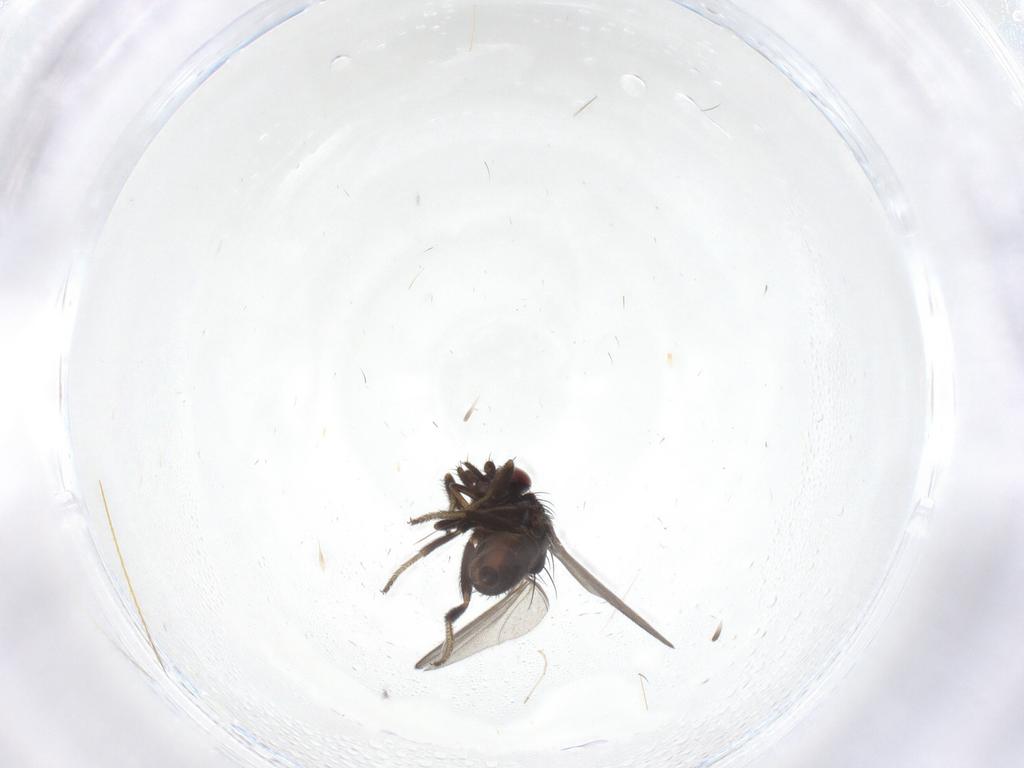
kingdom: Animalia
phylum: Arthropoda
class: Insecta
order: Diptera
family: Milichiidae
